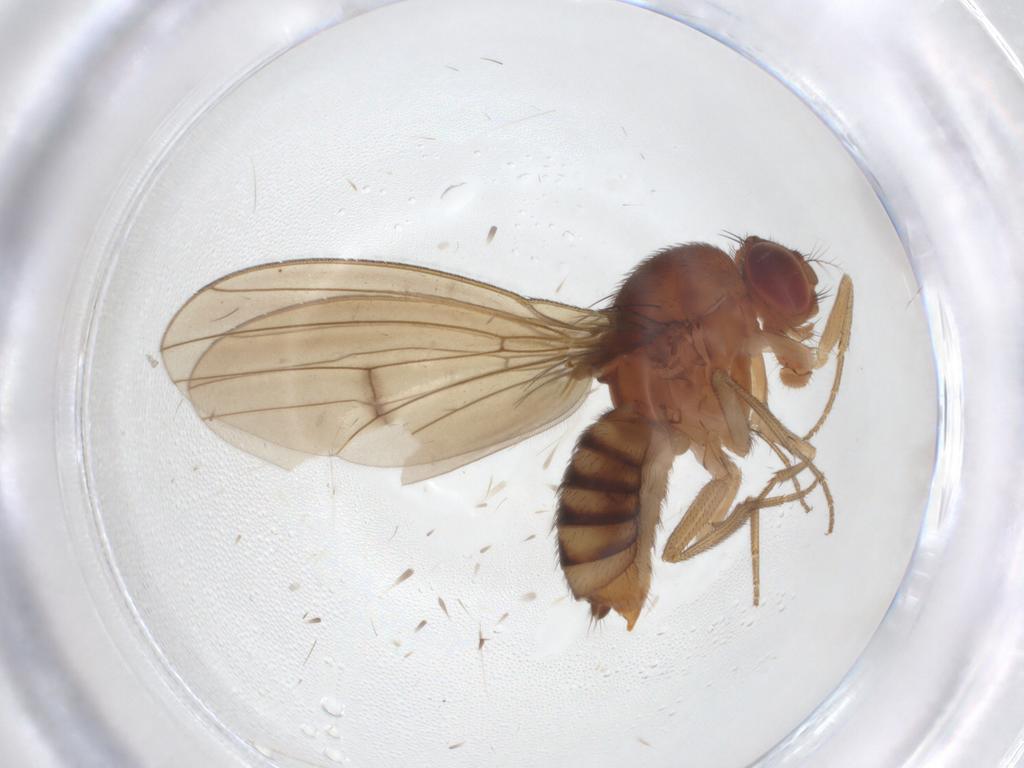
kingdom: Animalia
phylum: Arthropoda
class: Insecta
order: Diptera
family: Drosophilidae
